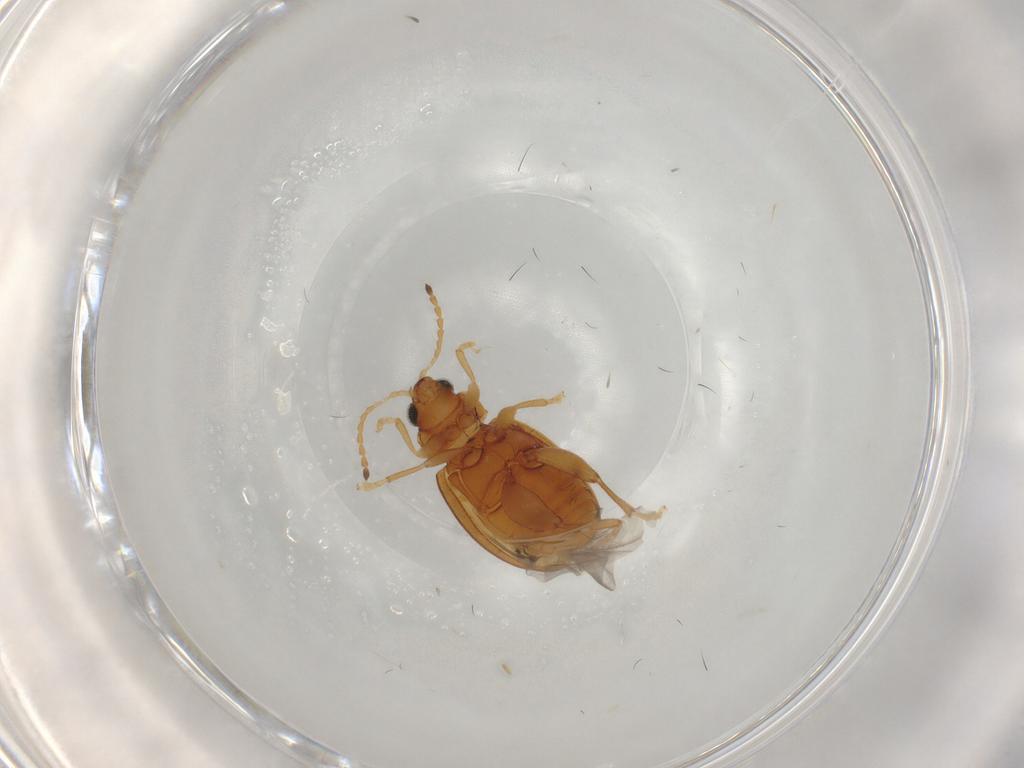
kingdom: Animalia
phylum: Arthropoda
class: Insecta
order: Coleoptera
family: Chrysomelidae
